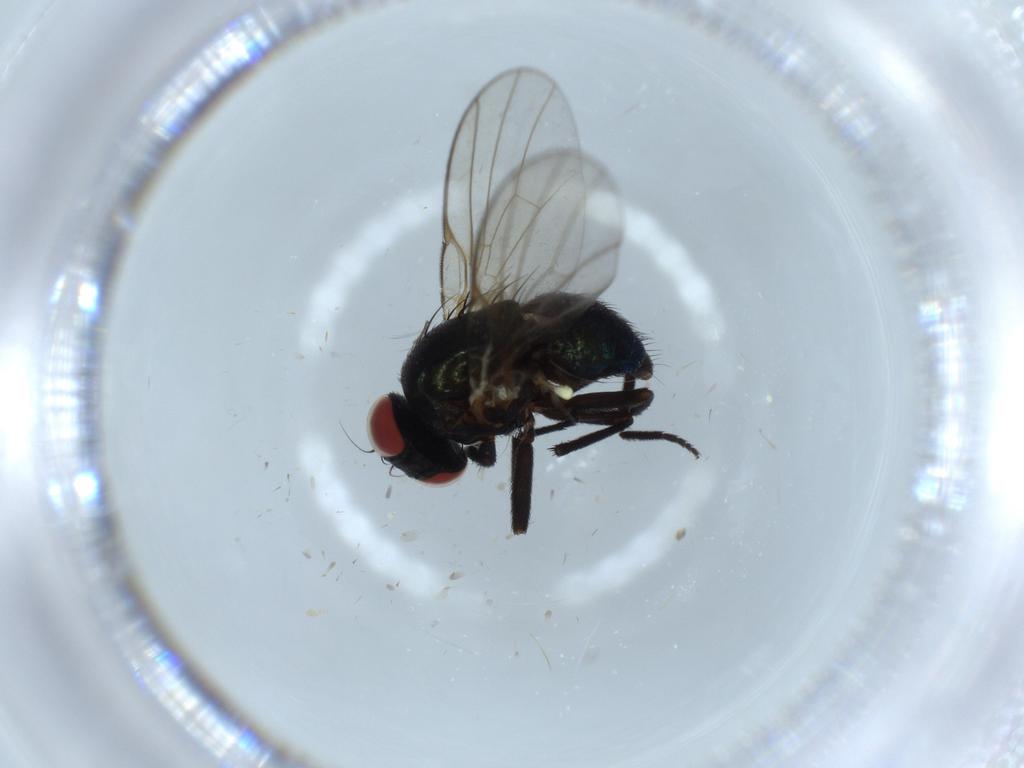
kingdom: Animalia
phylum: Arthropoda
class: Insecta
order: Diptera
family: Agromyzidae
